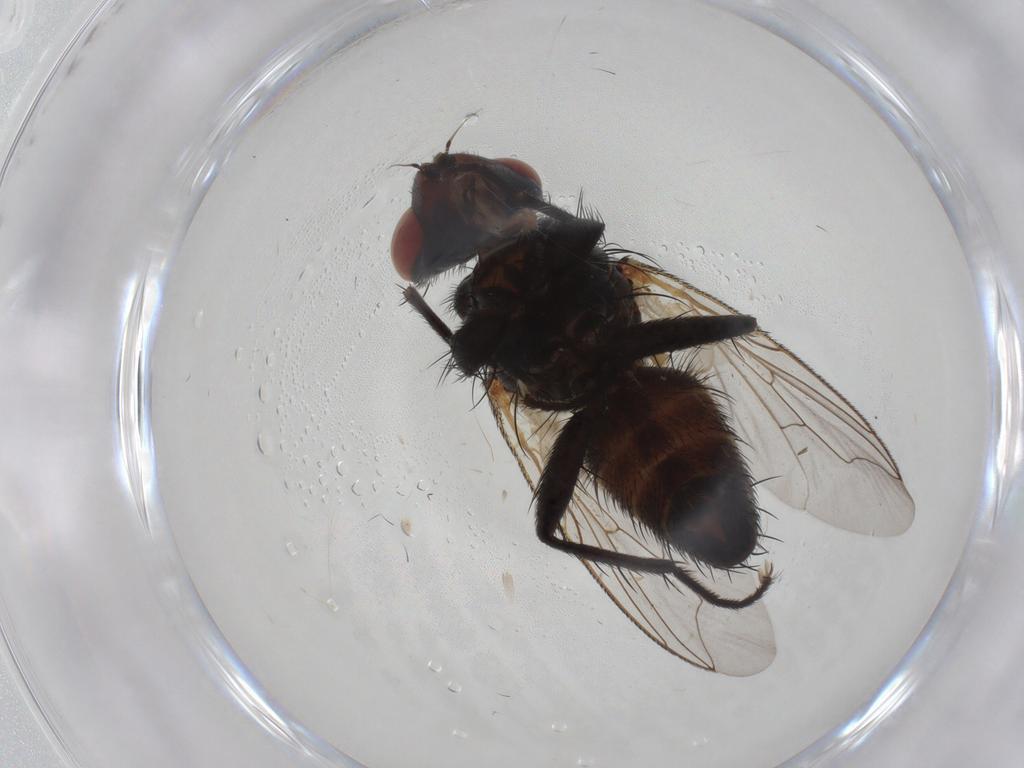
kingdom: Animalia
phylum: Arthropoda
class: Insecta
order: Diptera
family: Sarcophagidae
